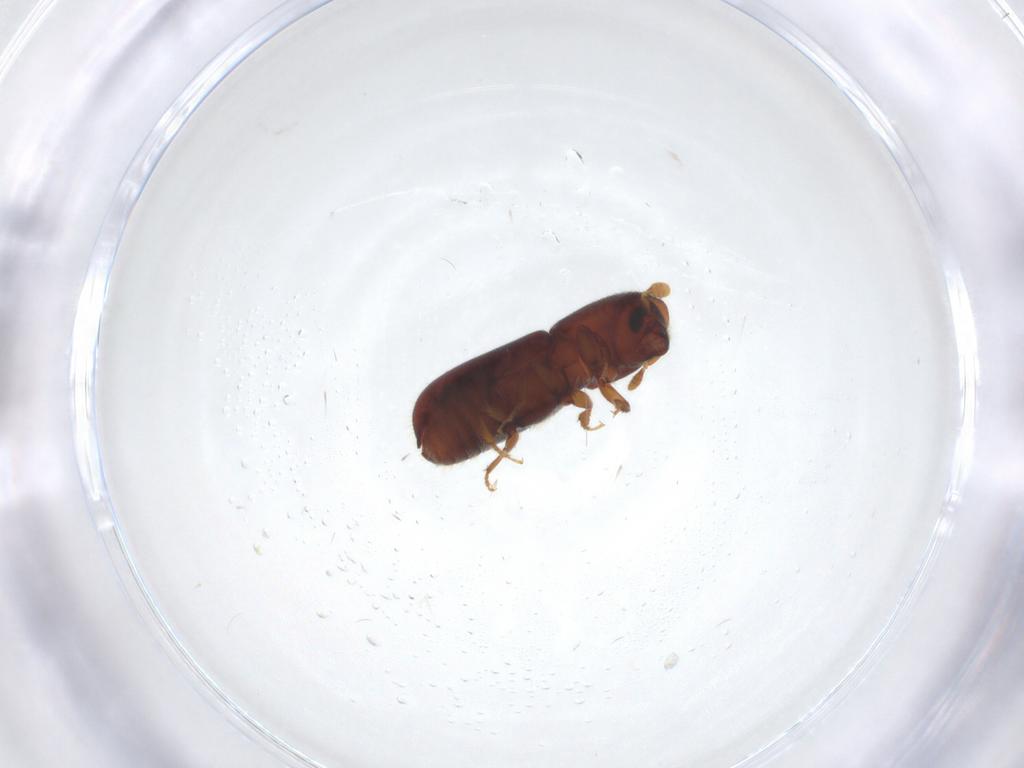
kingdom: Animalia
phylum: Arthropoda
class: Insecta
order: Coleoptera
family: Curculionidae
